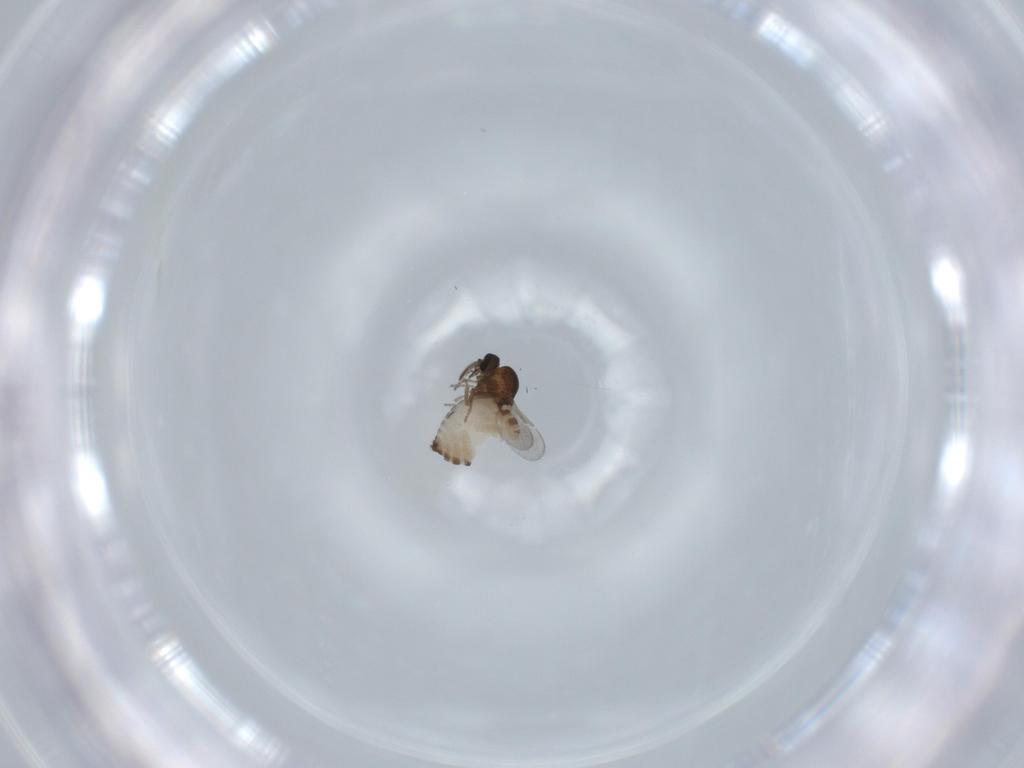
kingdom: Animalia
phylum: Arthropoda
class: Insecta
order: Diptera
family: Ceratopogonidae
